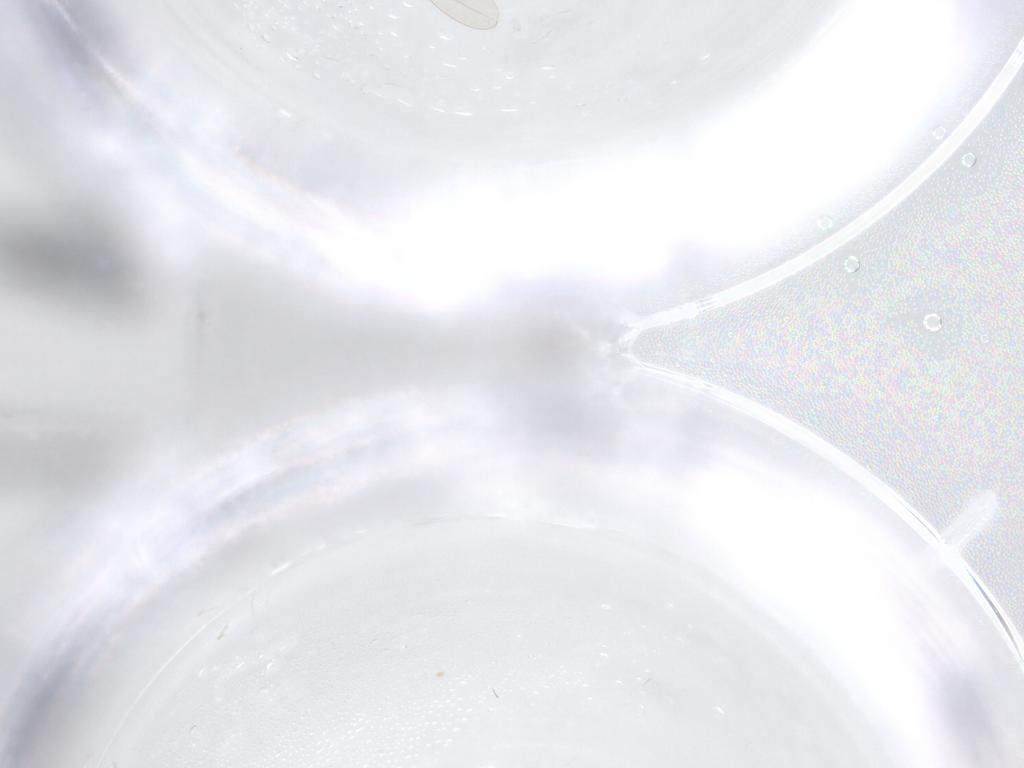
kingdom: Animalia
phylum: Arthropoda
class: Insecta
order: Diptera
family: Psychodidae
